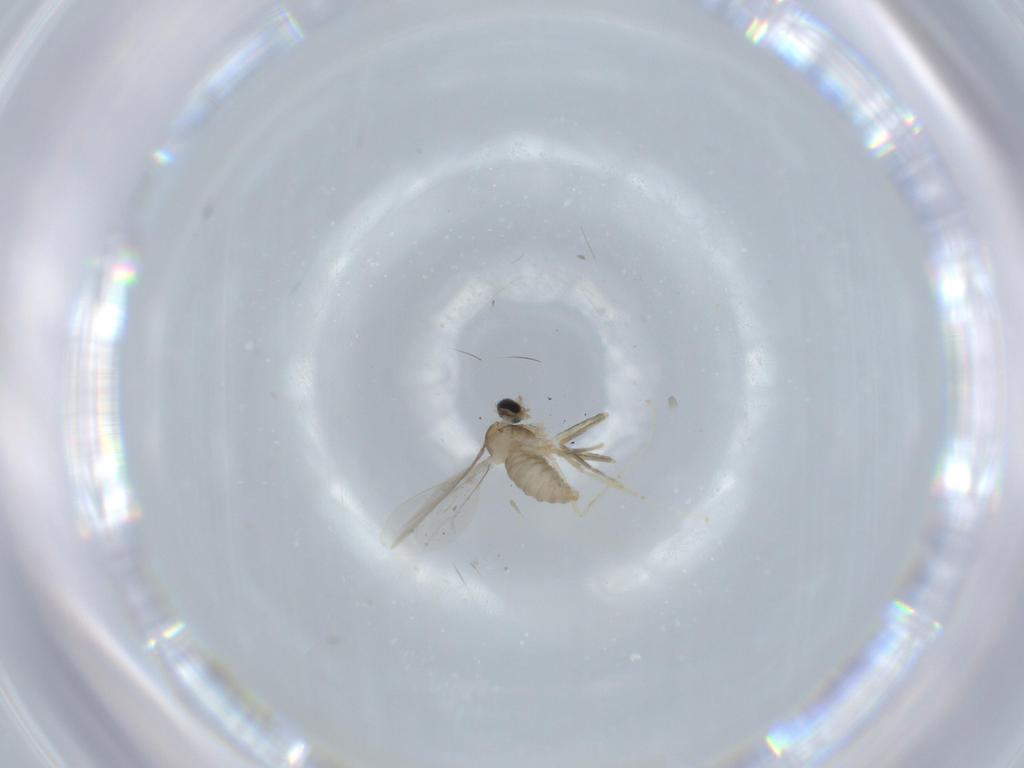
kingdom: Animalia
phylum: Arthropoda
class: Insecta
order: Diptera
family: Cecidomyiidae
